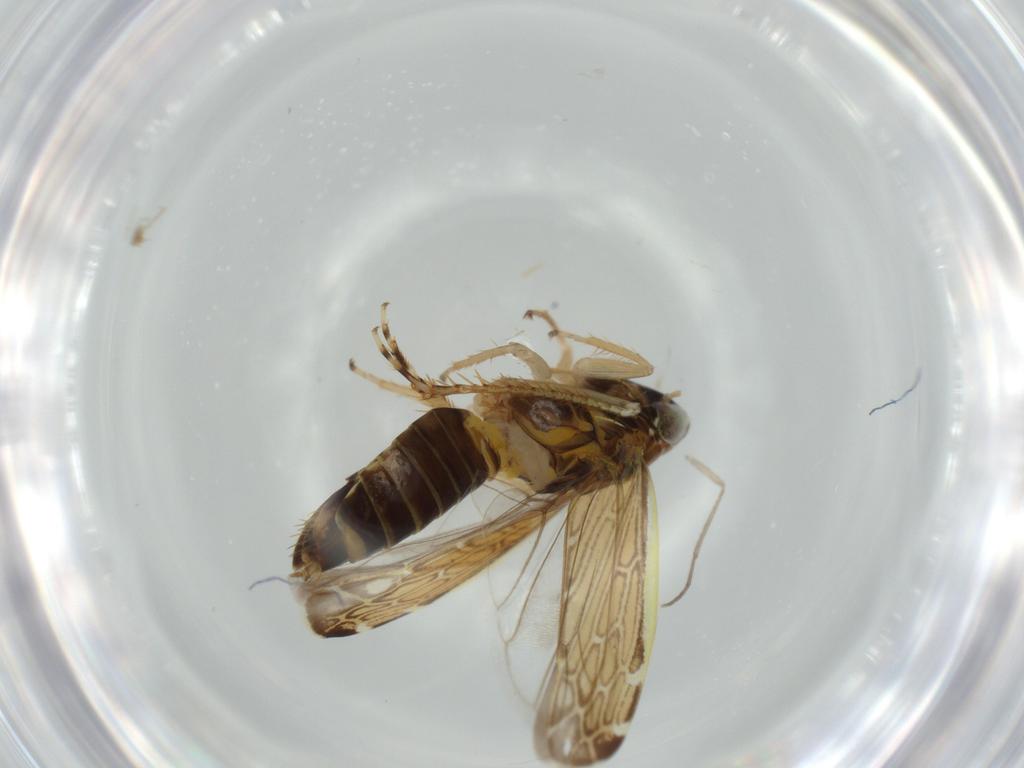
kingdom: Animalia
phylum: Arthropoda
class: Insecta
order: Hemiptera
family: Cicadellidae
